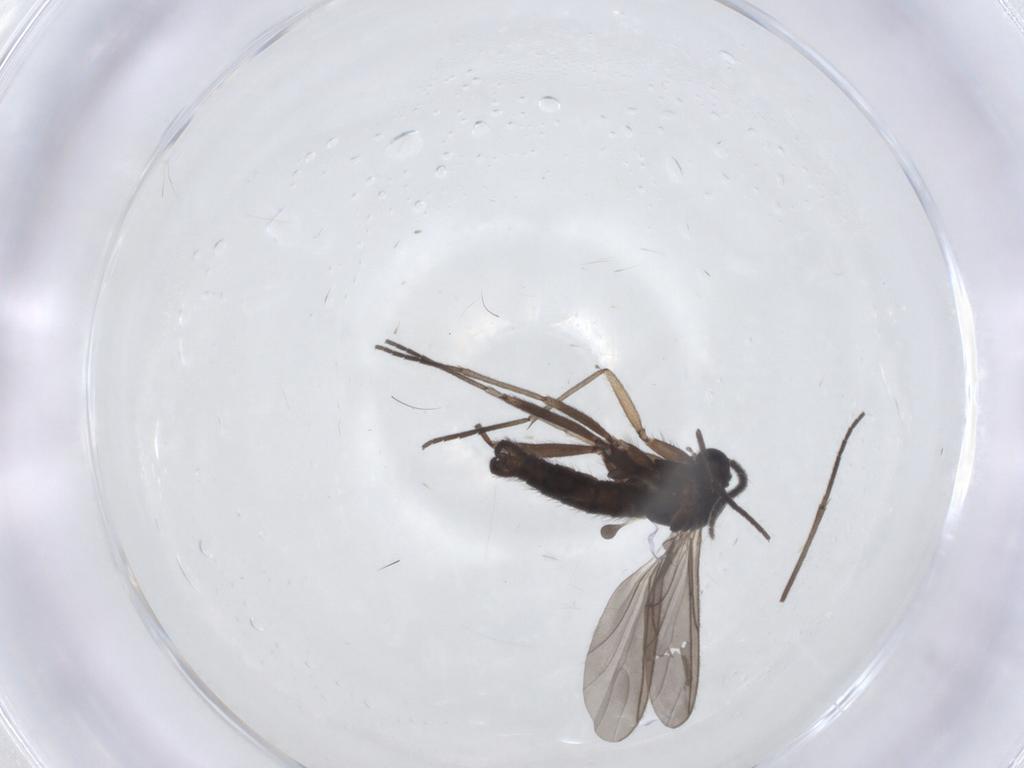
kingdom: Animalia
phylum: Arthropoda
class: Insecta
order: Diptera
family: Sciaridae
